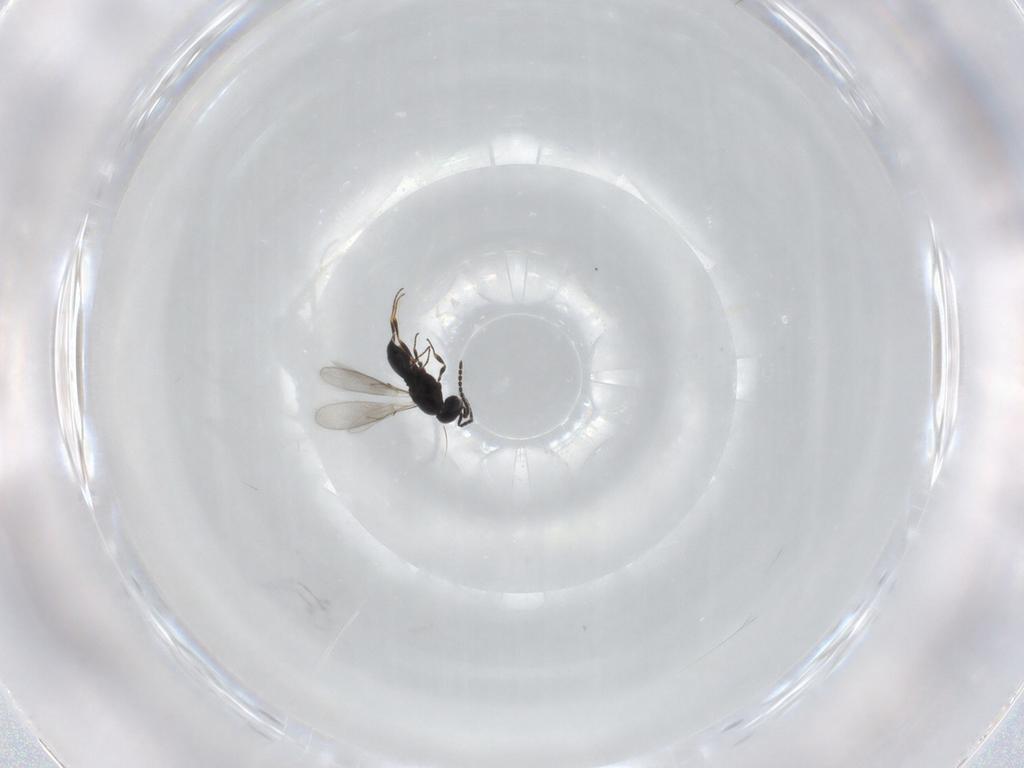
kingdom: Animalia
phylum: Arthropoda
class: Insecta
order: Hymenoptera
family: Scelionidae
